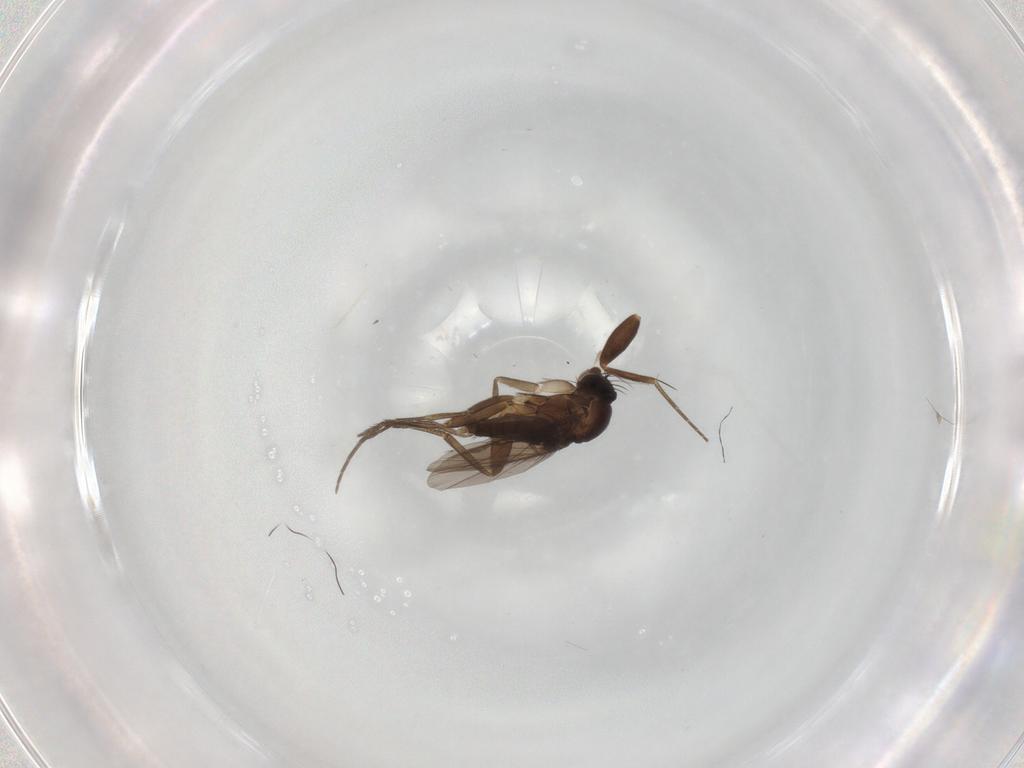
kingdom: Animalia
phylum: Arthropoda
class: Insecta
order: Diptera
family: Phoridae
